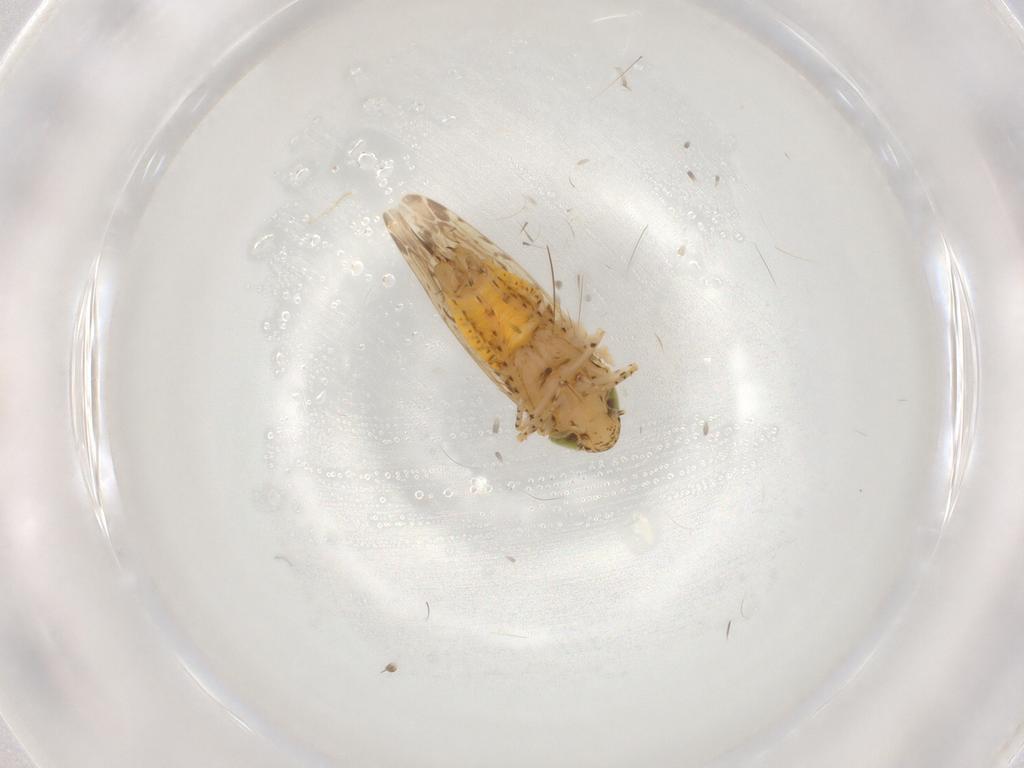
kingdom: Animalia
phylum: Arthropoda
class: Insecta
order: Hemiptera
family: Cicadellidae
